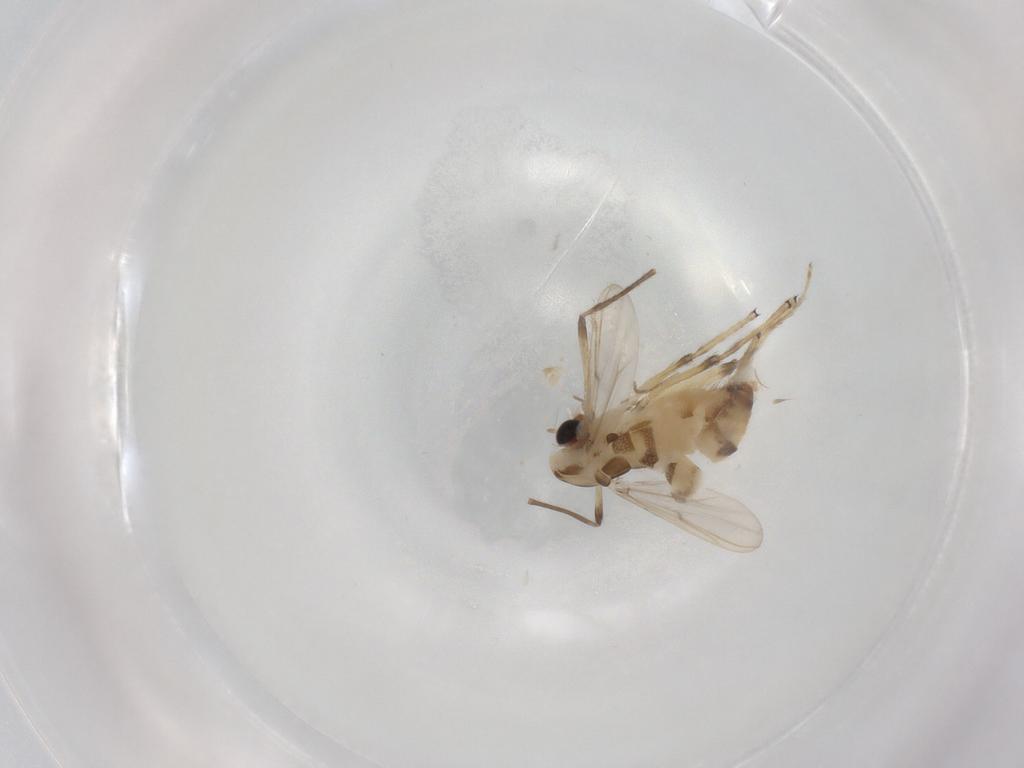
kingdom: Animalia
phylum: Arthropoda
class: Insecta
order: Diptera
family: Chironomidae
